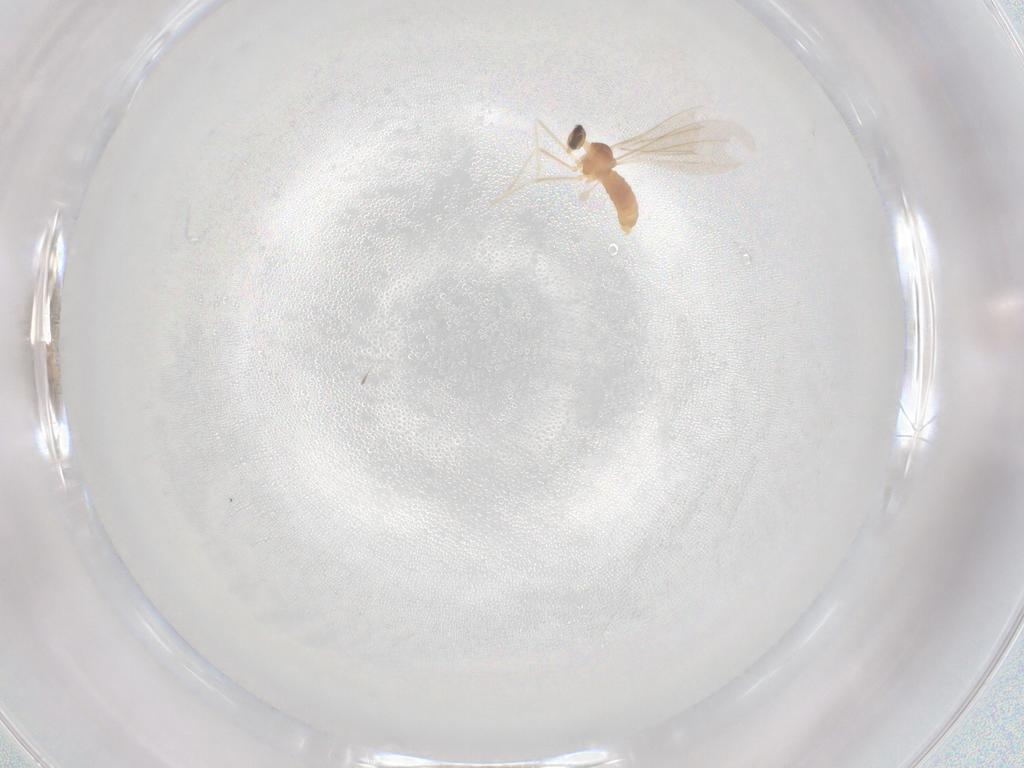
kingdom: Animalia
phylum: Arthropoda
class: Insecta
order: Diptera
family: Cecidomyiidae
